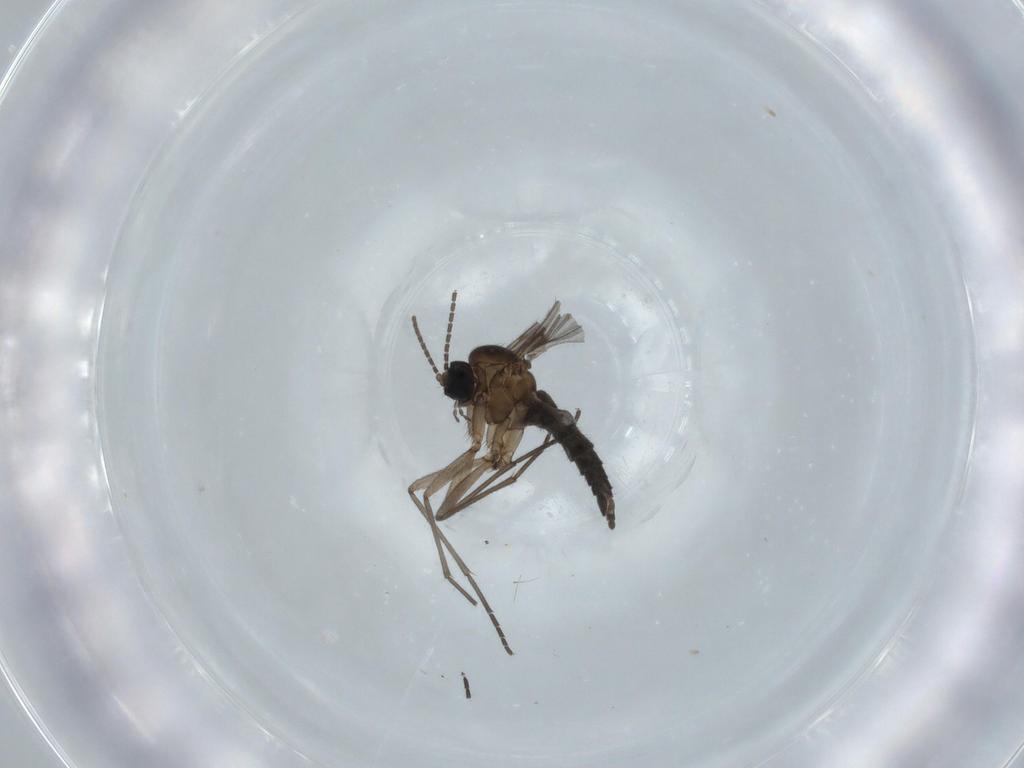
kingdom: Animalia
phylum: Arthropoda
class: Insecta
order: Diptera
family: Sciaridae
